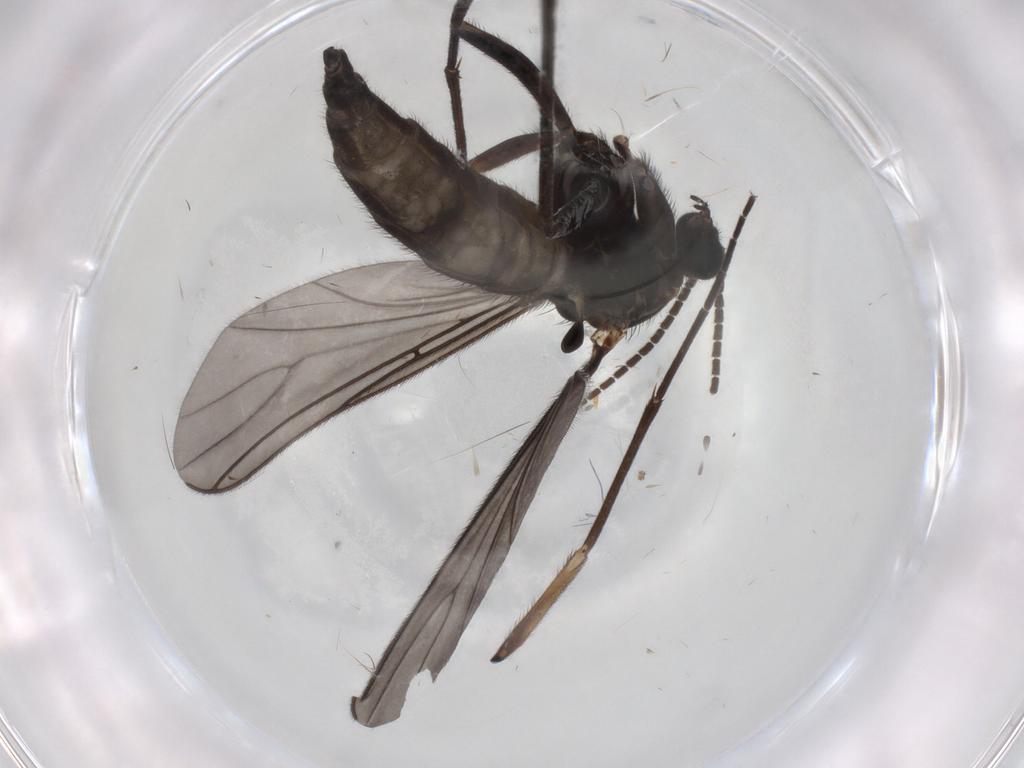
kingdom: Animalia
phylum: Arthropoda
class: Insecta
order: Diptera
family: Sciaridae
